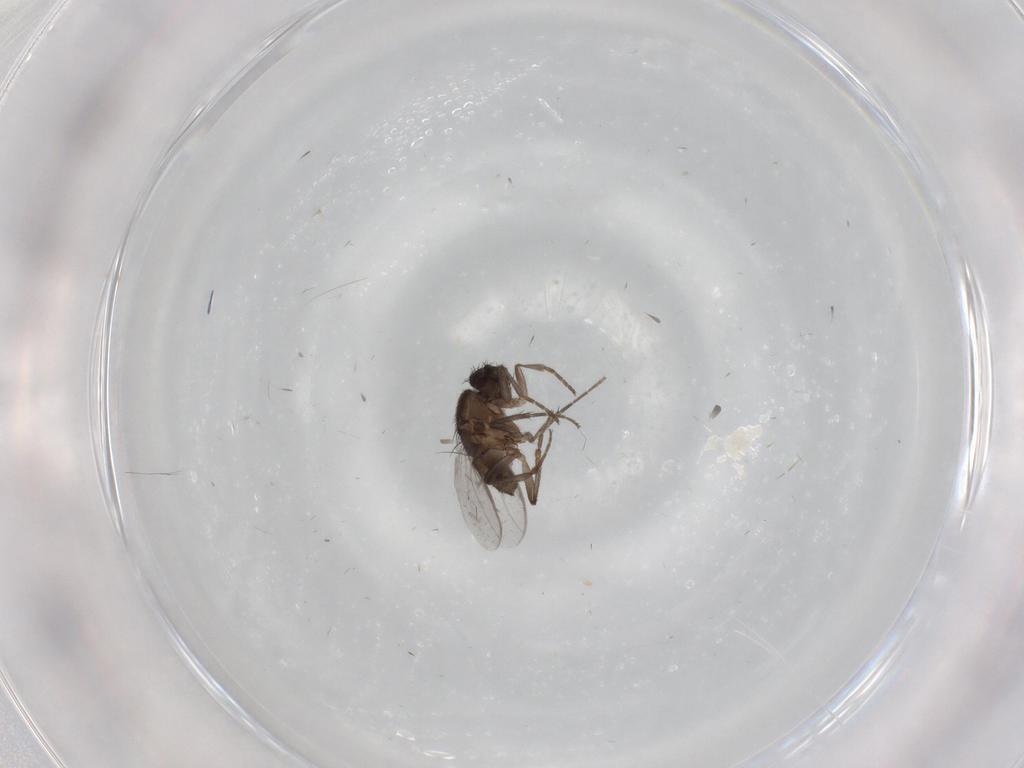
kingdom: Animalia
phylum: Arthropoda
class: Insecta
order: Diptera
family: Sphaeroceridae
